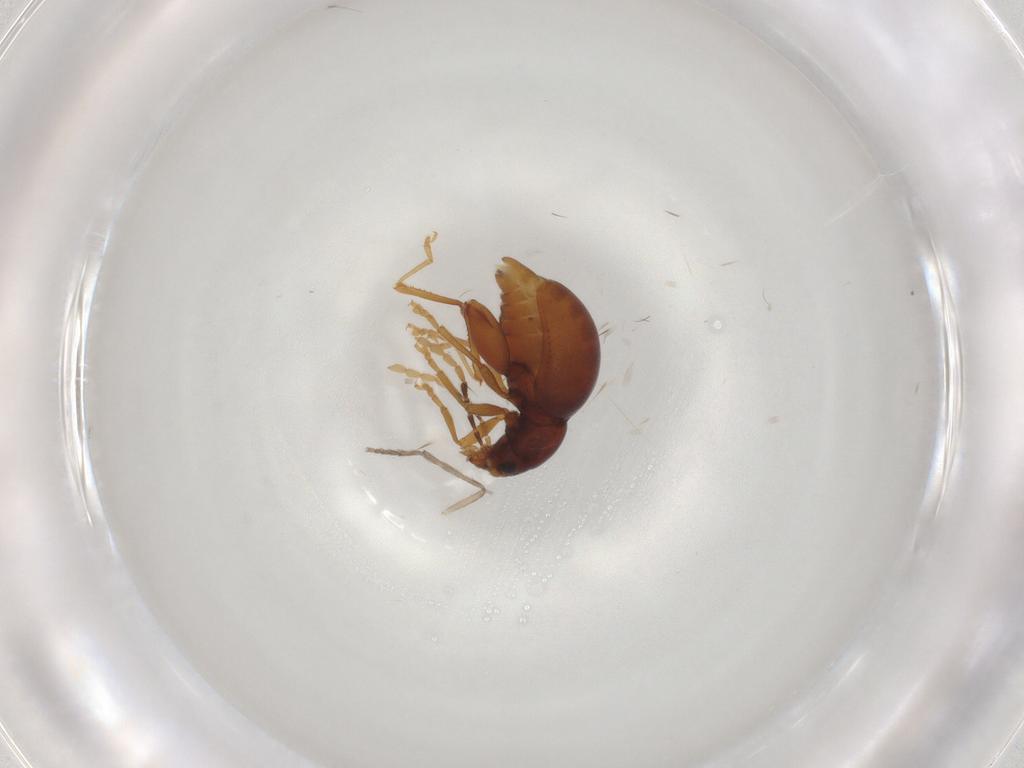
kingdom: Animalia
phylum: Arthropoda
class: Insecta
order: Coleoptera
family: Chrysomelidae
